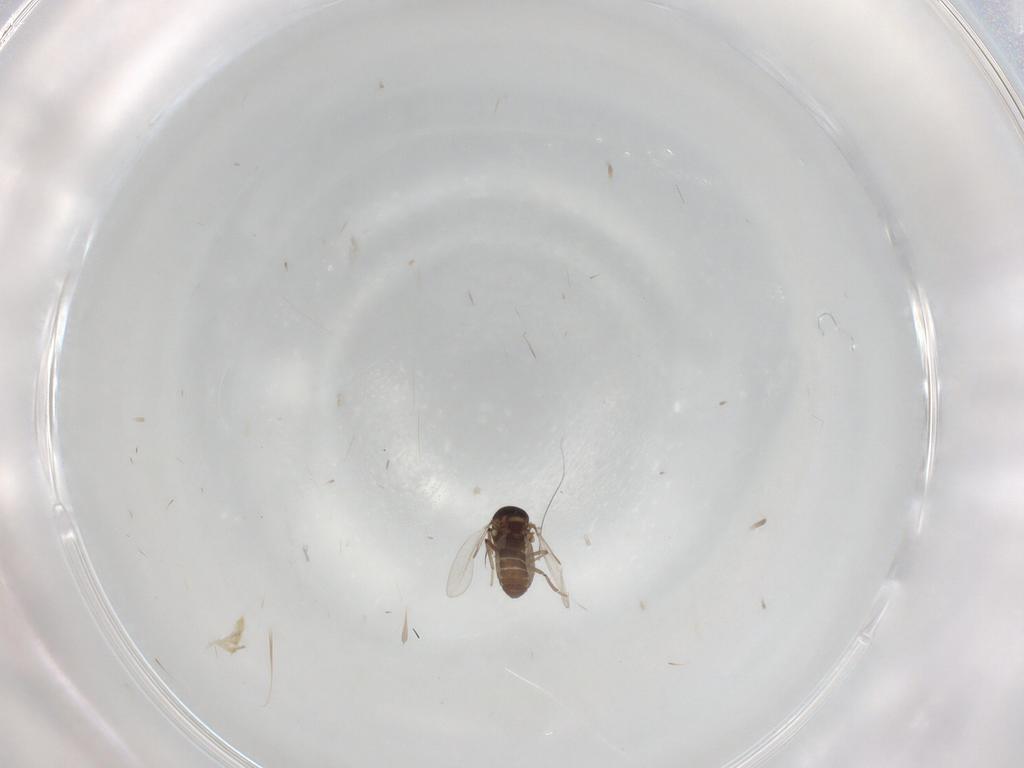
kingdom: Animalia
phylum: Arthropoda
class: Insecta
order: Diptera
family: Ceratopogonidae
